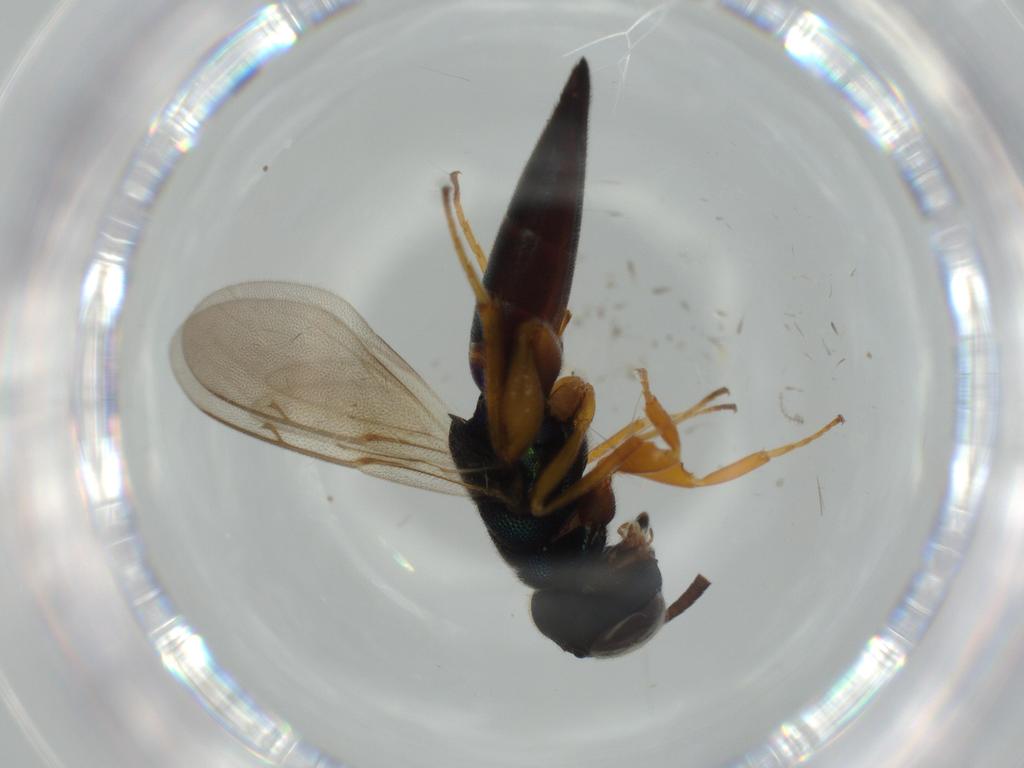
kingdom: Animalia
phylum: Arthropoda
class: Insecta
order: Hymenoptera
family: Eupelmidae
